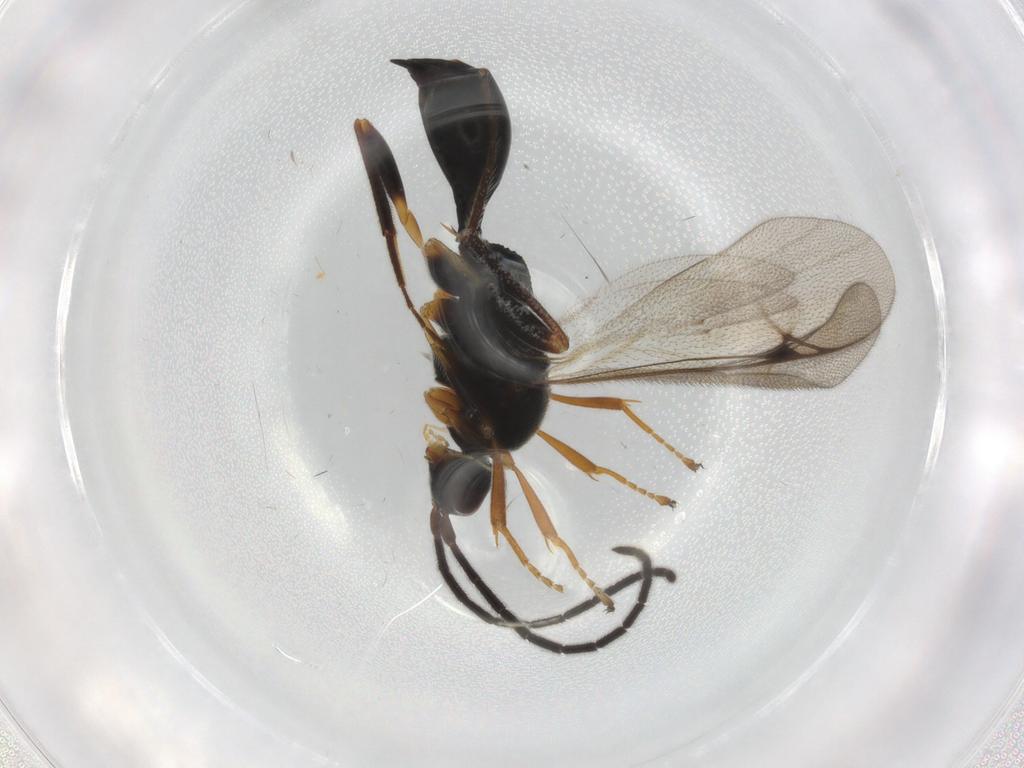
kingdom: Animalia
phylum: Arthropoda
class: Insecta
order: Hymenoptera
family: Proctotrupidae
